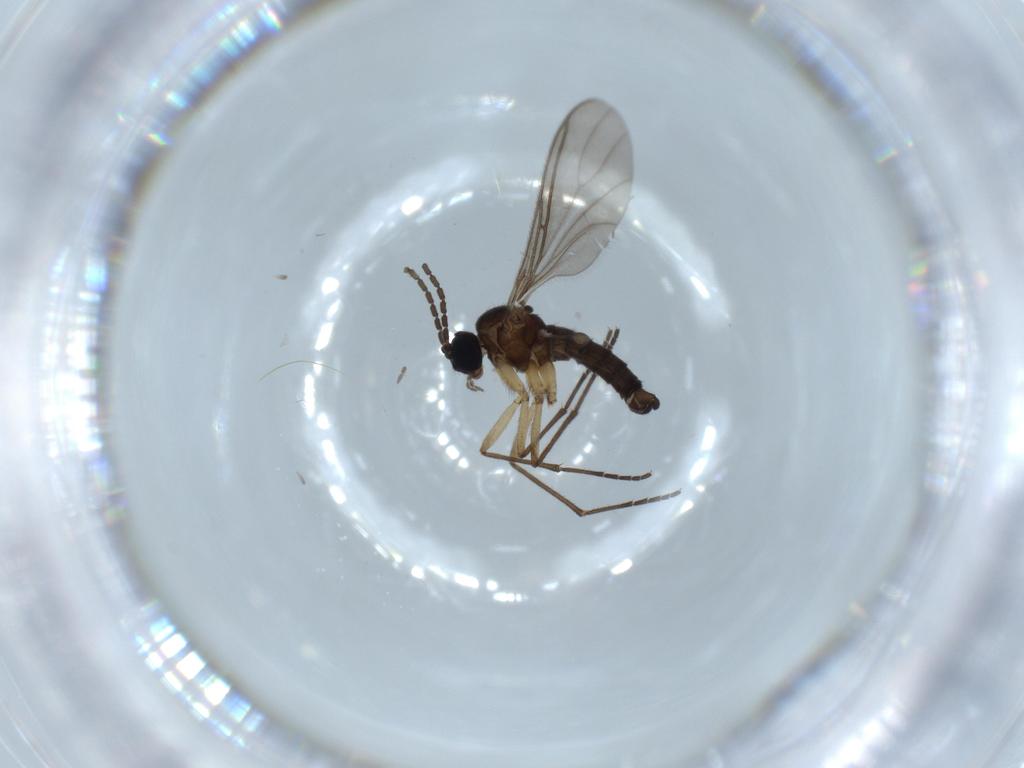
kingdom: Animalia
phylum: Arthropoda
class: Insecta
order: Diptera
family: Sciaridae
